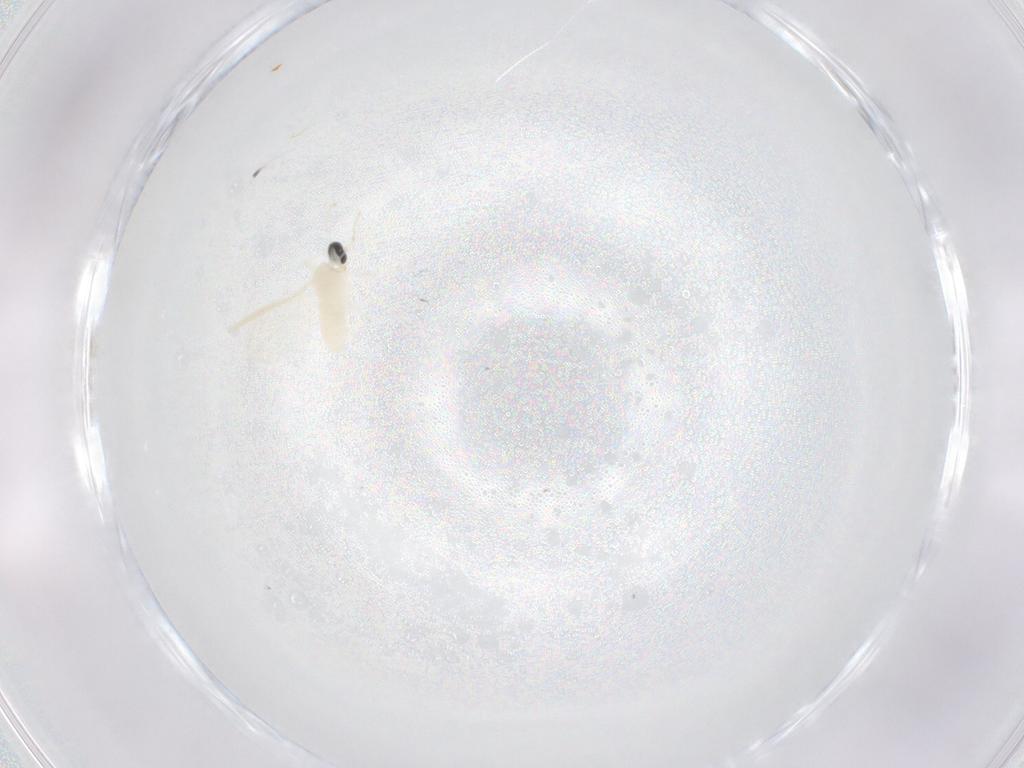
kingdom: Animalia
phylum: Arthropoda
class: Insecta
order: Diptera
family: Cecidomyiidae
